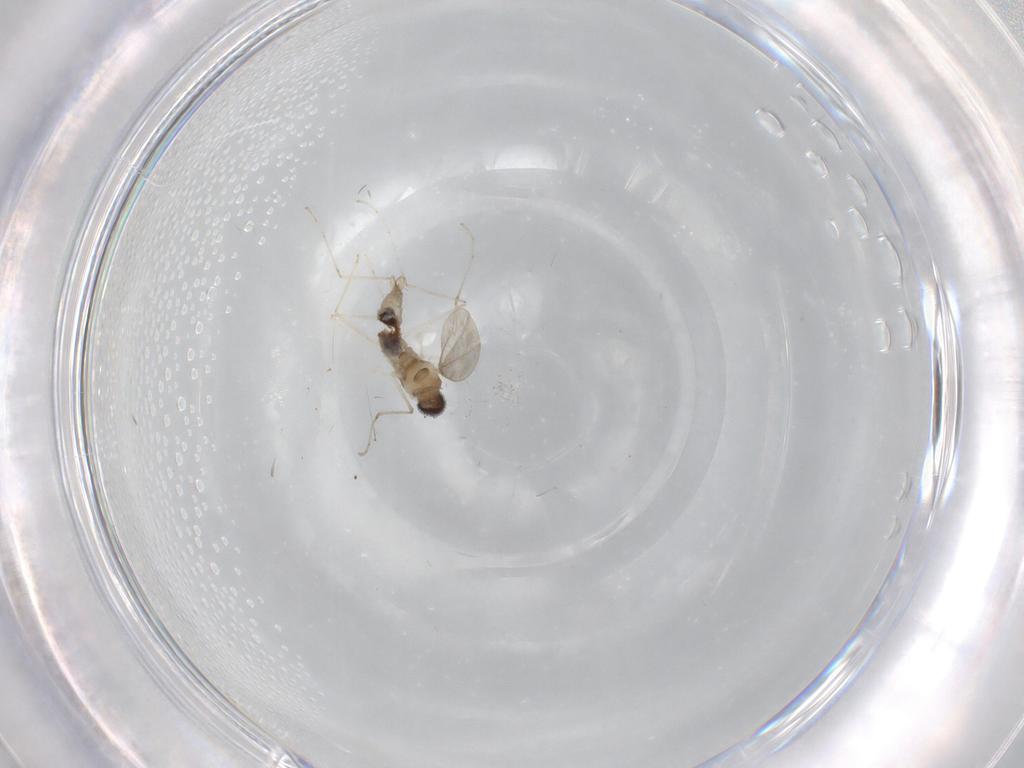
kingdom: Animalia
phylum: Arthropoda
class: Insecta
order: Diptera
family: Cecidomyiidae
